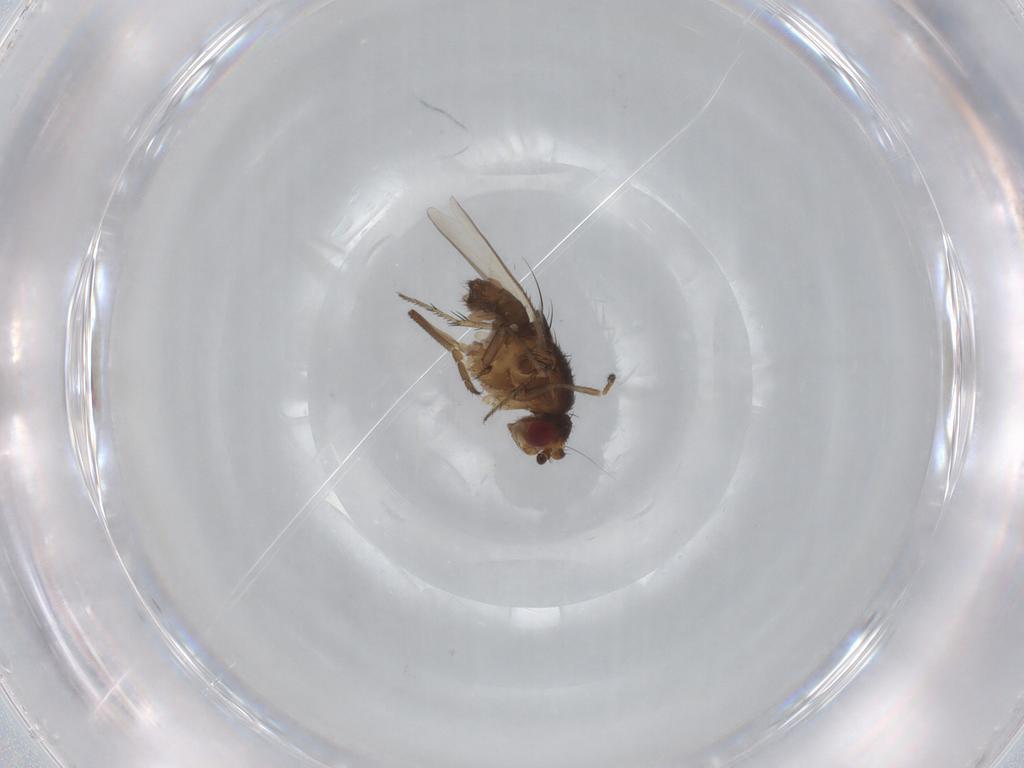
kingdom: Animalia
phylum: Arthropoda
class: Insecta
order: Diptera
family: Sphaeroceridae
